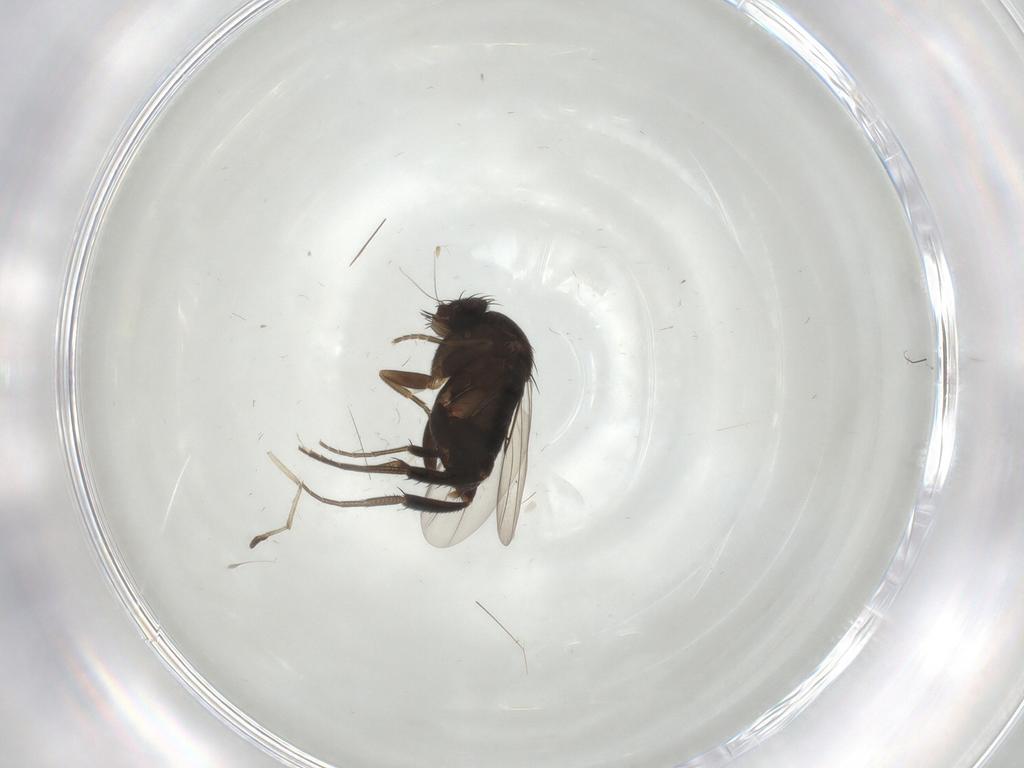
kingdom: Animalia
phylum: Arthropoda
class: Insecta
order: Diptera
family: Phoridae
